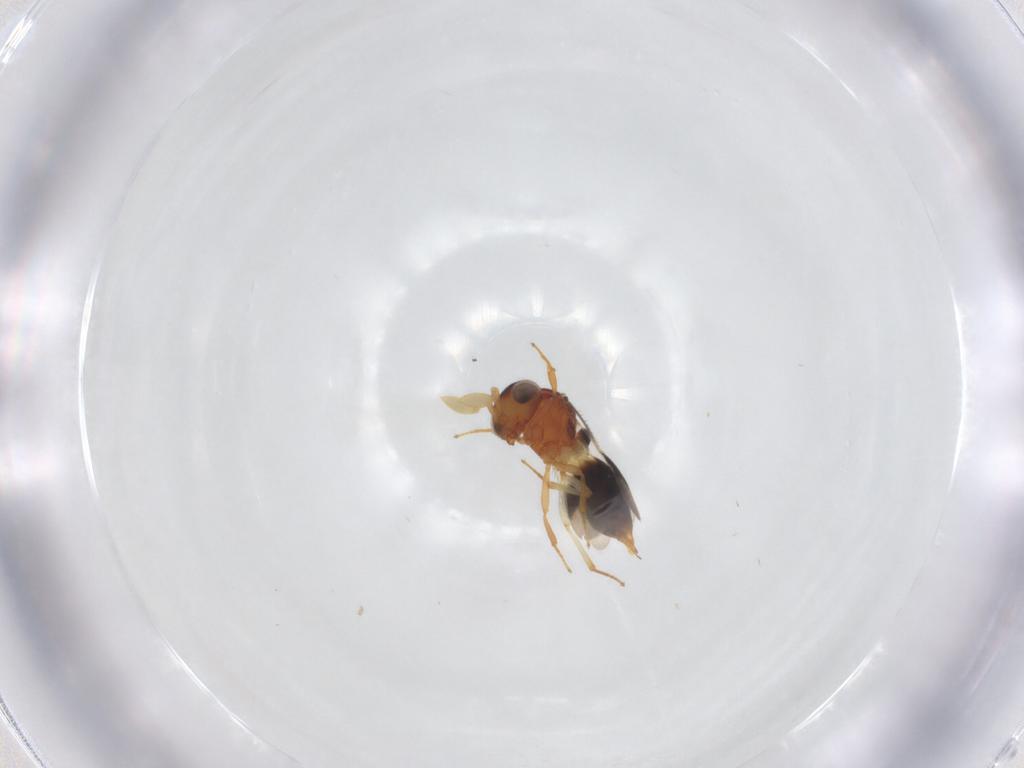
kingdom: Animalia
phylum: Arthropoda
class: Insecta
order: Hymenoptera
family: Scelionidae
